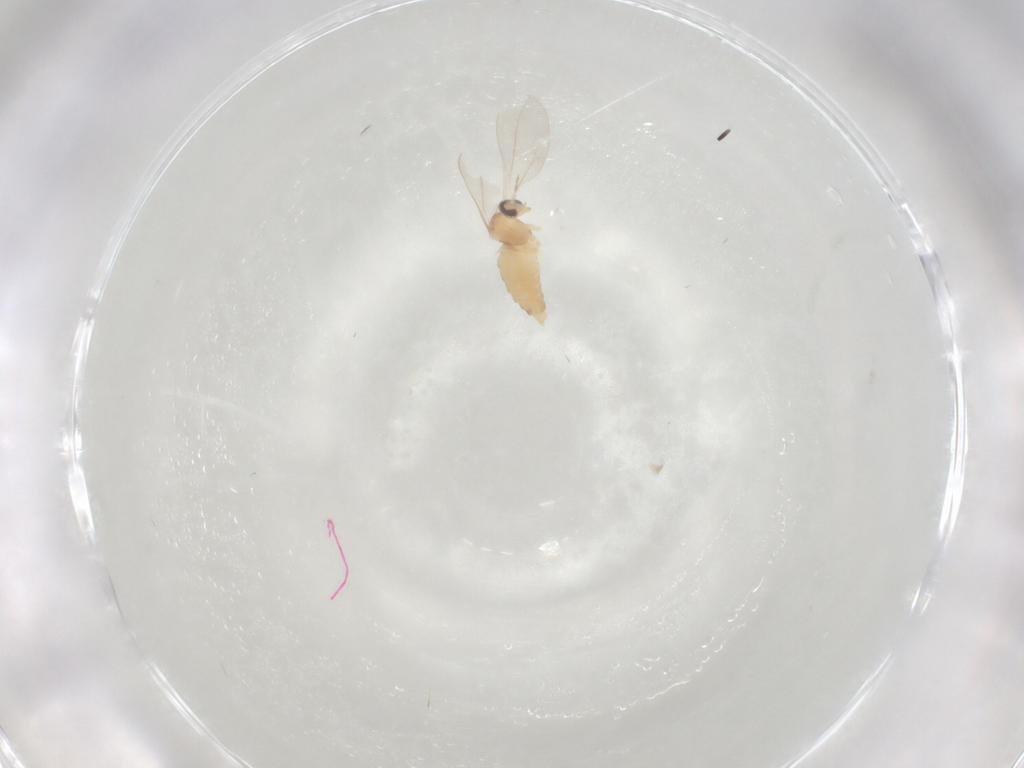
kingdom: Animalia
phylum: Arthropoda
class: Insecta
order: Diptera
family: Cecidomyiidae
